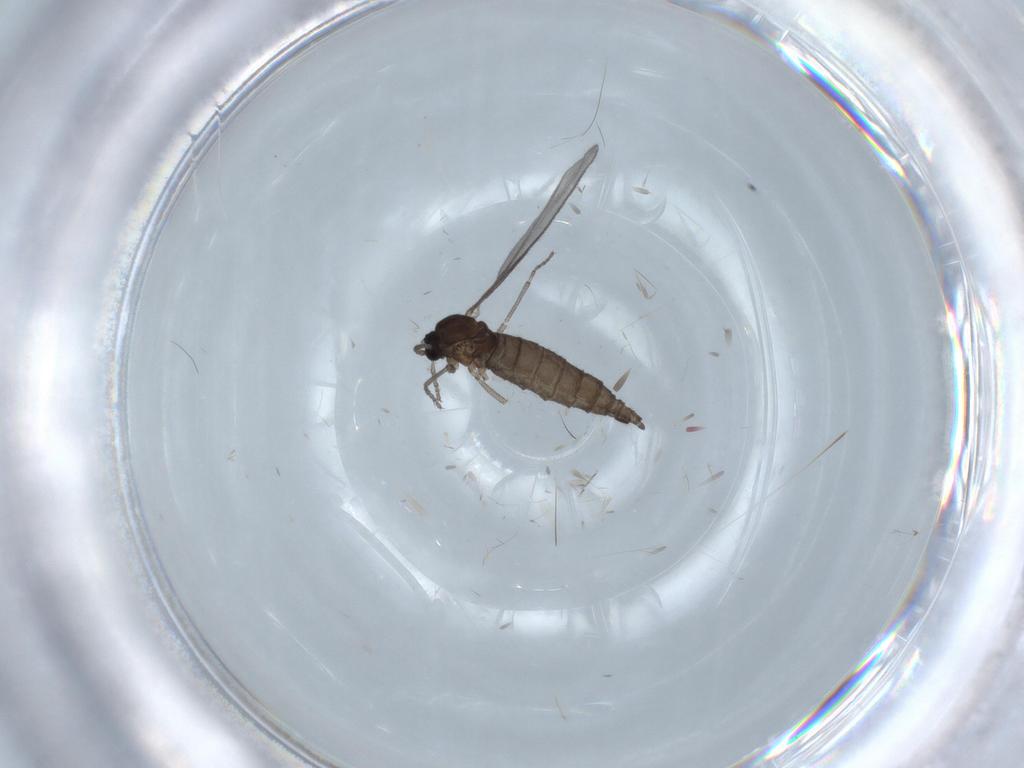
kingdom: Animalia
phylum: Arthropoda
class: Insecta
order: Diptera
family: Sciaridae
